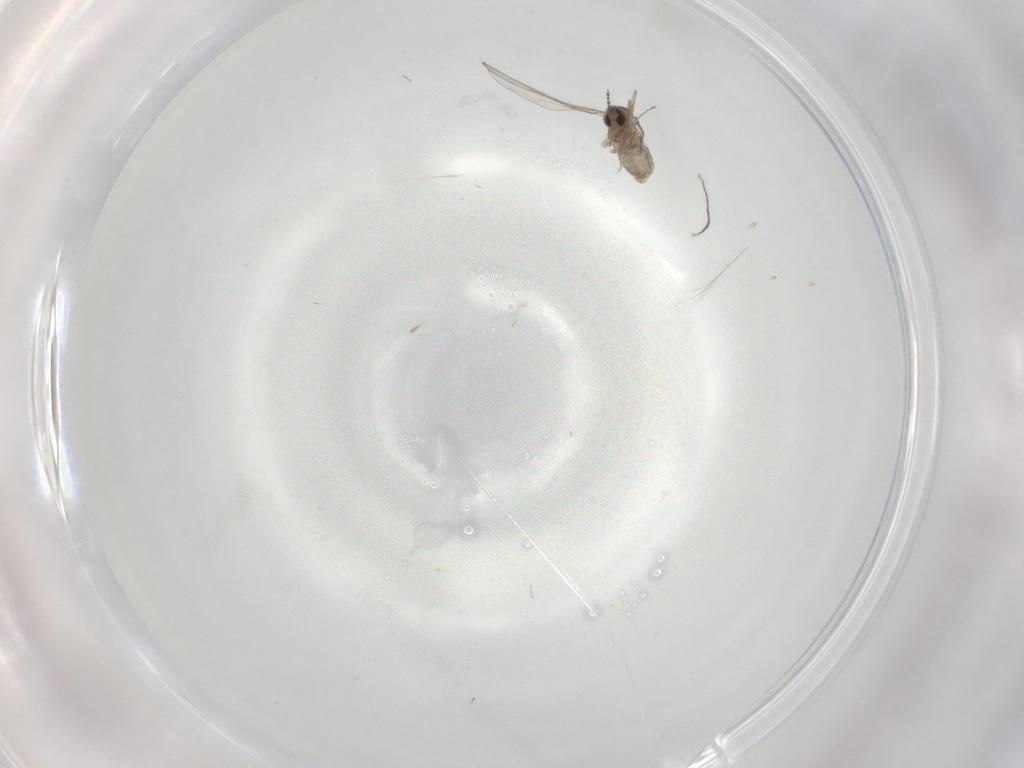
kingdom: Animalia
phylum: Arthropoda
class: Insecta
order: Diptera
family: Cecidomyiidae
